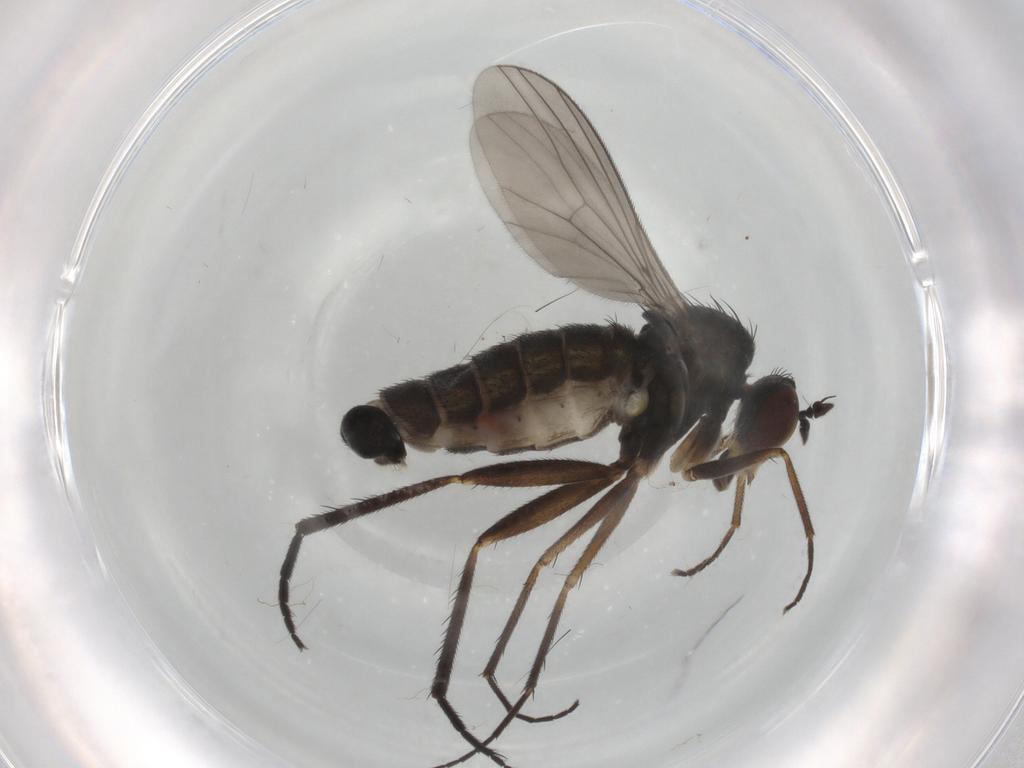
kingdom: Animalia
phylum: Arthropoda
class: Insecta
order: Diptera
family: Dolichopodidae
